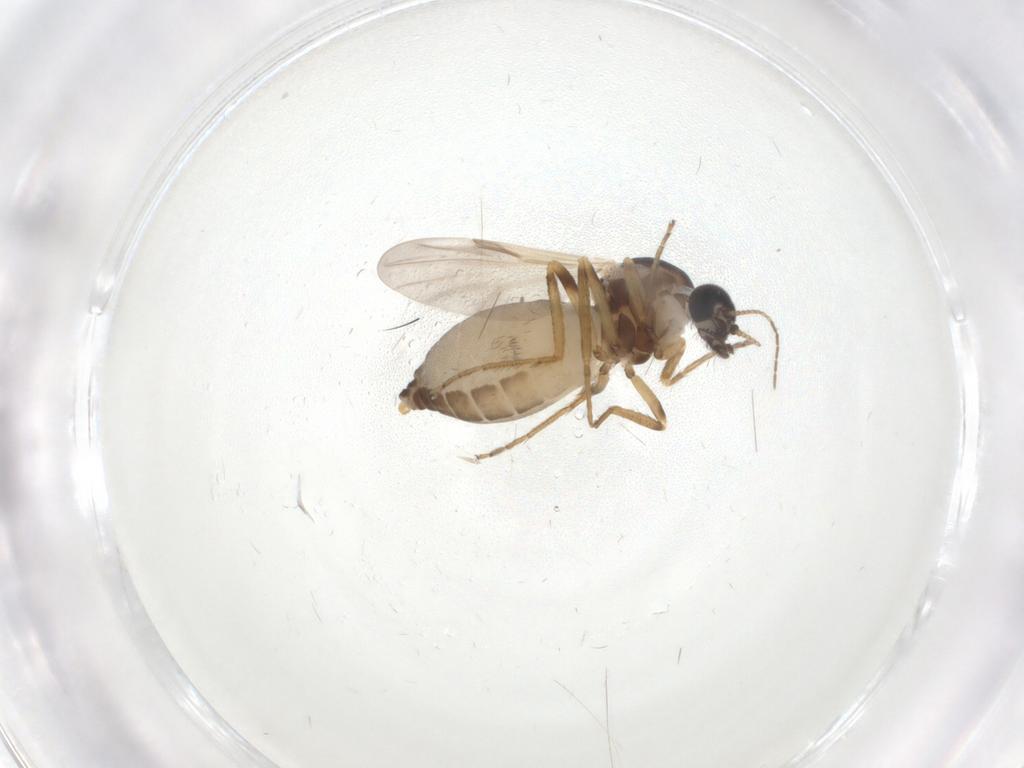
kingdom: Animalia
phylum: Arthropoda
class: Insecta
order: Diptera
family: Ceratopogonidae
